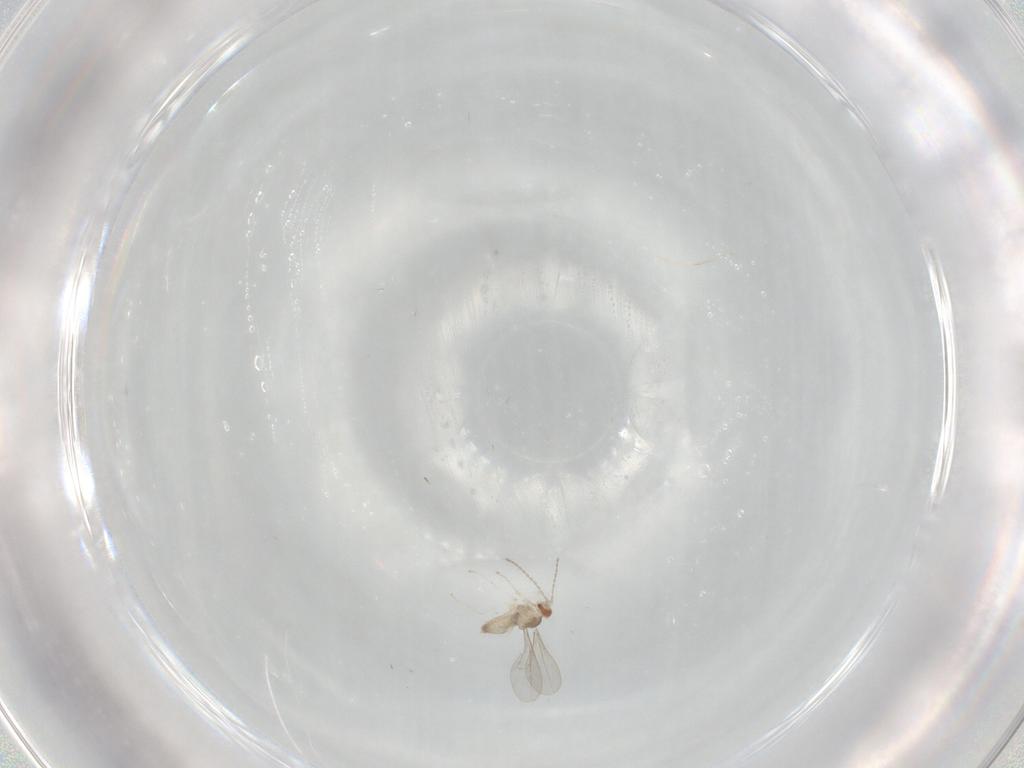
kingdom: Animalia
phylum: Arthropoda
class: Insecta
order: Diptera
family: Cecidomyiidae
